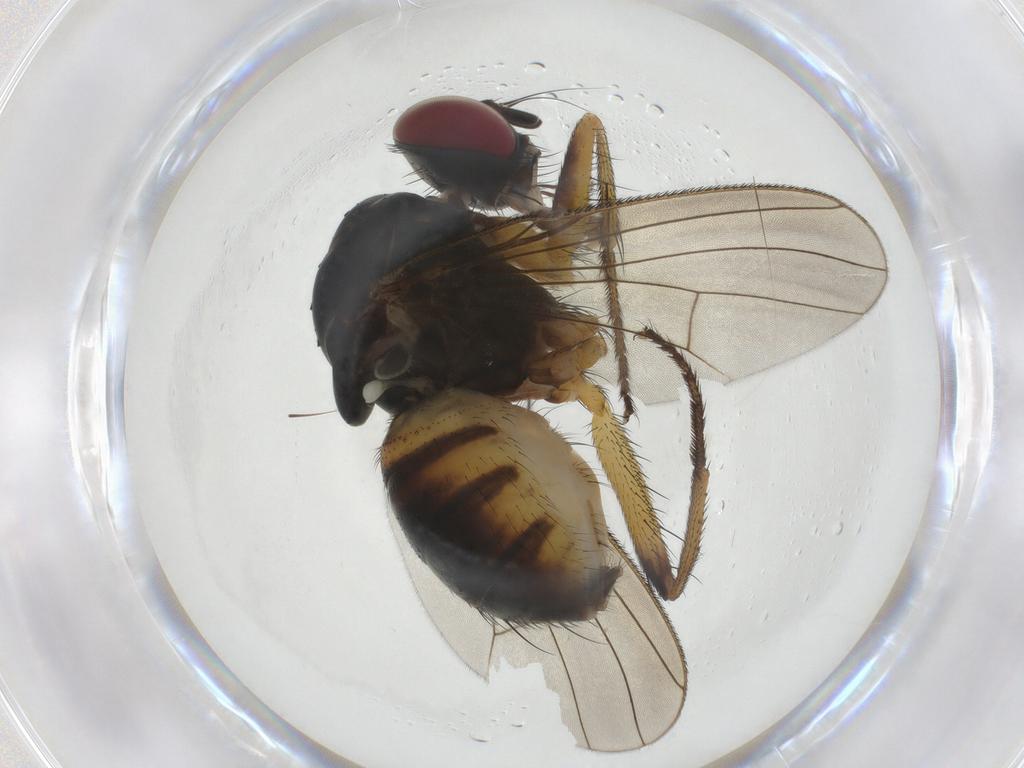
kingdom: Animalia
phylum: Arthropoda
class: Insecta
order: Diptera
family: Muscidae
